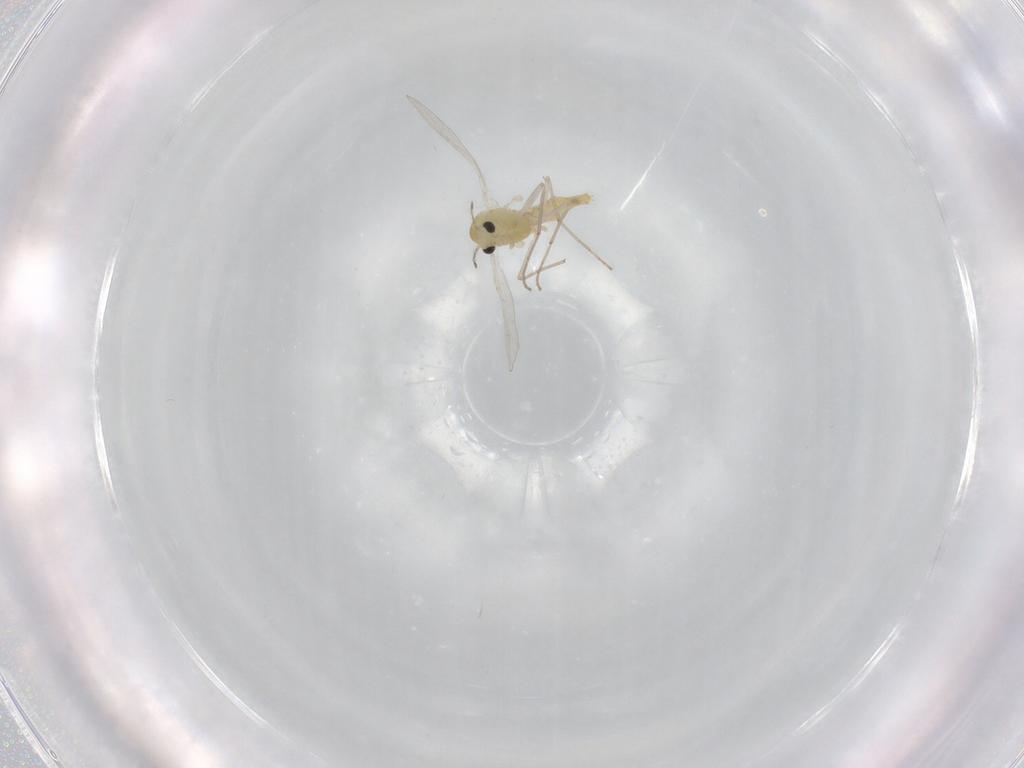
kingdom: Animalia
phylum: Arthropoda
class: Insecta
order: Diptera
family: Chironomidae
